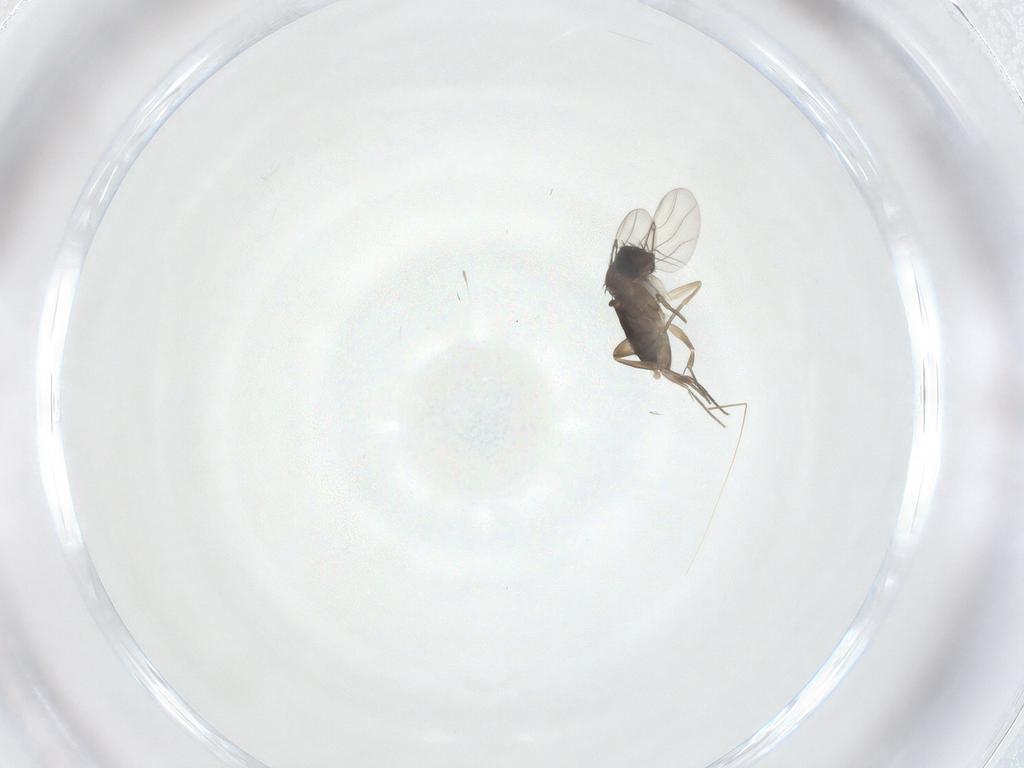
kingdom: Animalia
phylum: Arthropoda
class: Insecta
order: Diptera
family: Phoridae
